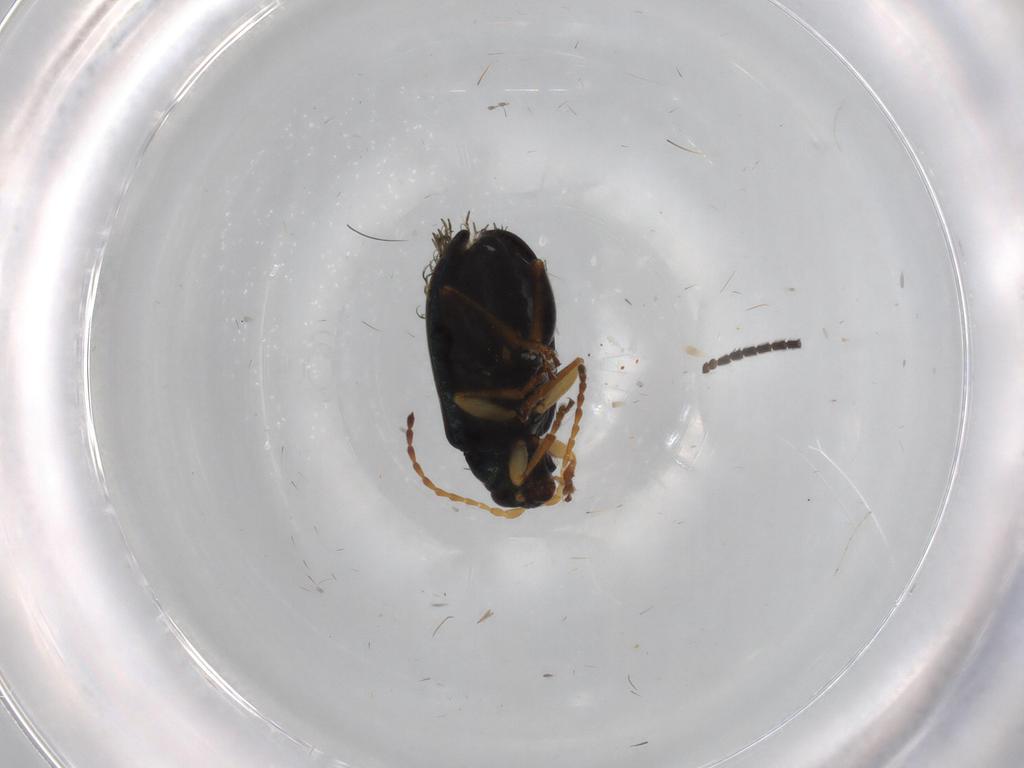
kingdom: Animalia
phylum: Arthropoda
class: Insecta
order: Coleoptera
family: Chrysomelidae
